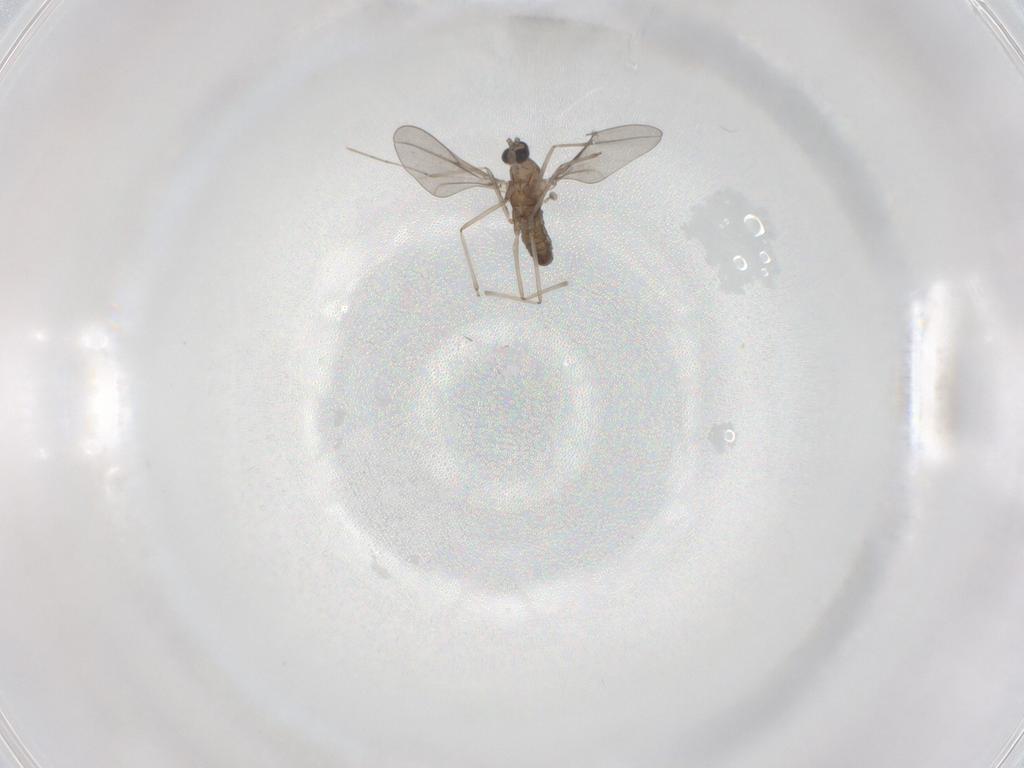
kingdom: Animalia
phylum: Arthropoda
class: Insecta
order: Diptera
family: Cecidomyiidae
